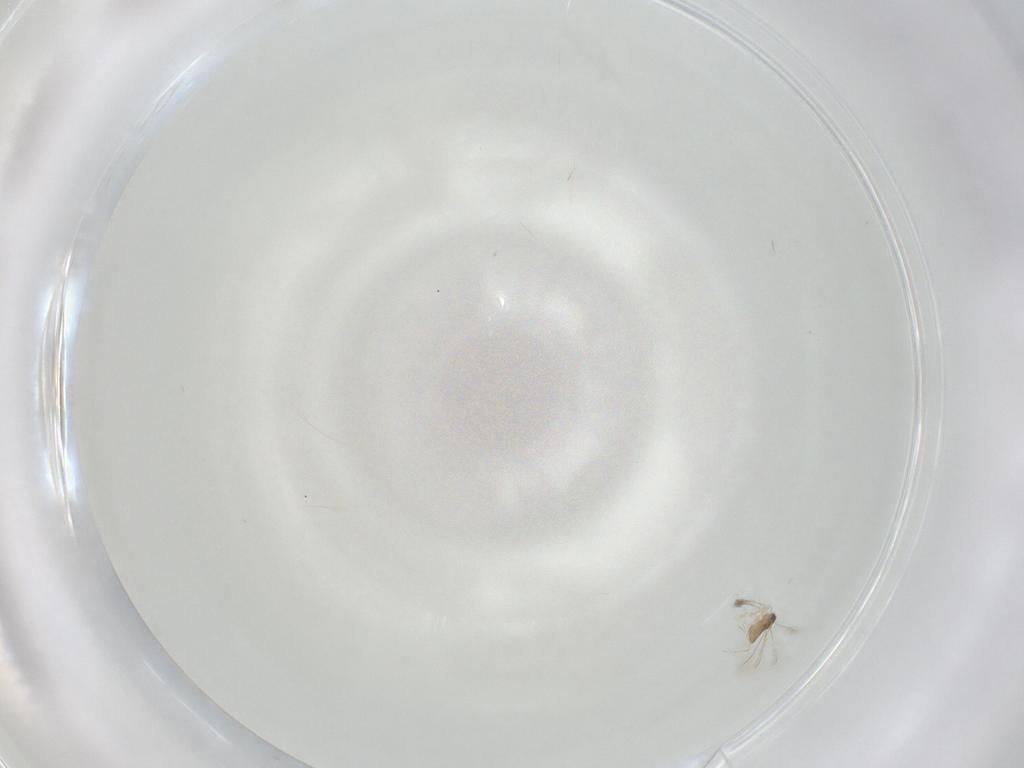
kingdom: Animalia
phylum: Arthropoda
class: Insecta
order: Hymenoptera
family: Mymaridae
